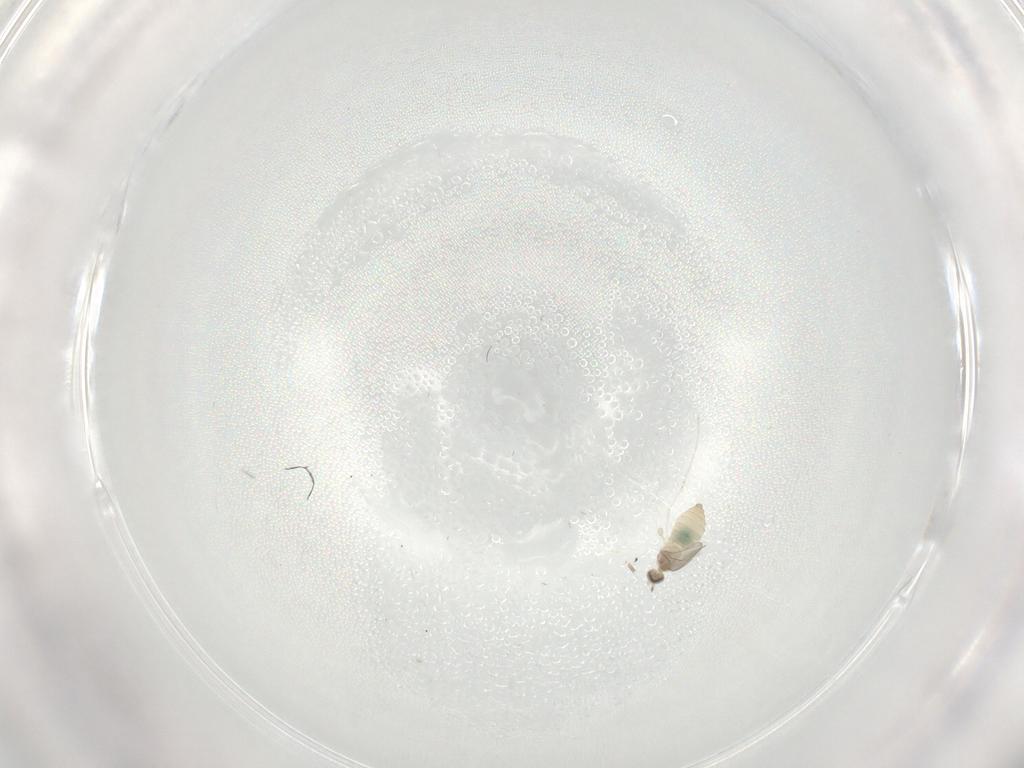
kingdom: Animalia
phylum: Arthropoda
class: Insecta
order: Diptera
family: Cecidomyiidae
